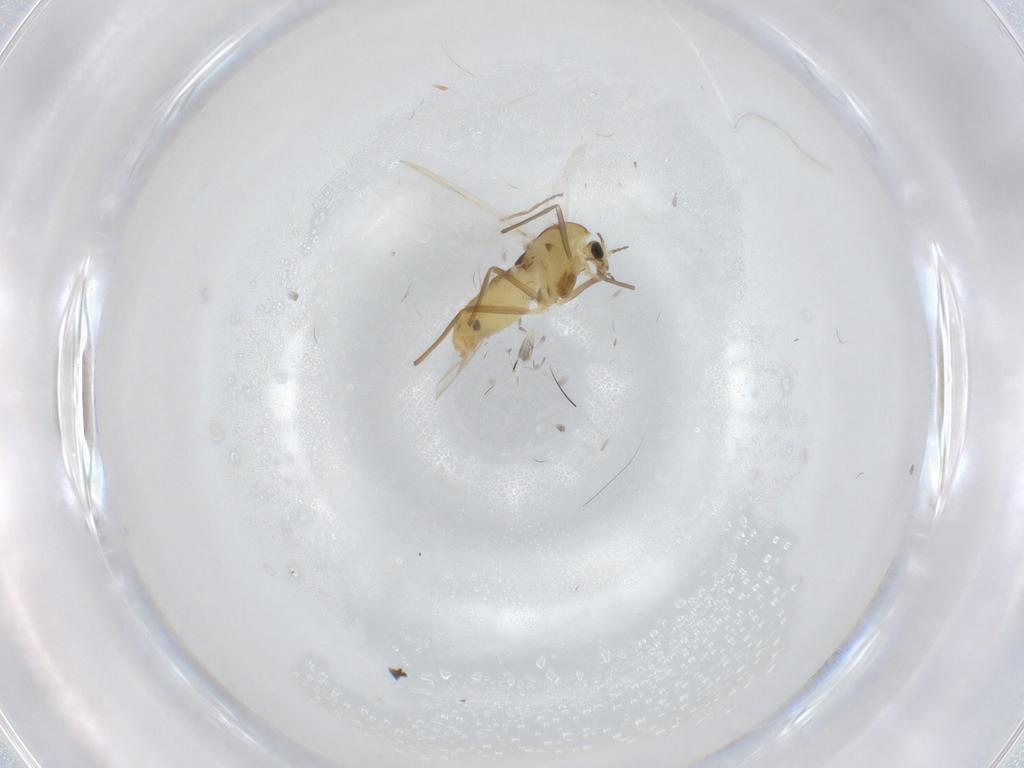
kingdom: Animalia
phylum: Arthropoda
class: Insecta
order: Diptera
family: Chironomidae
